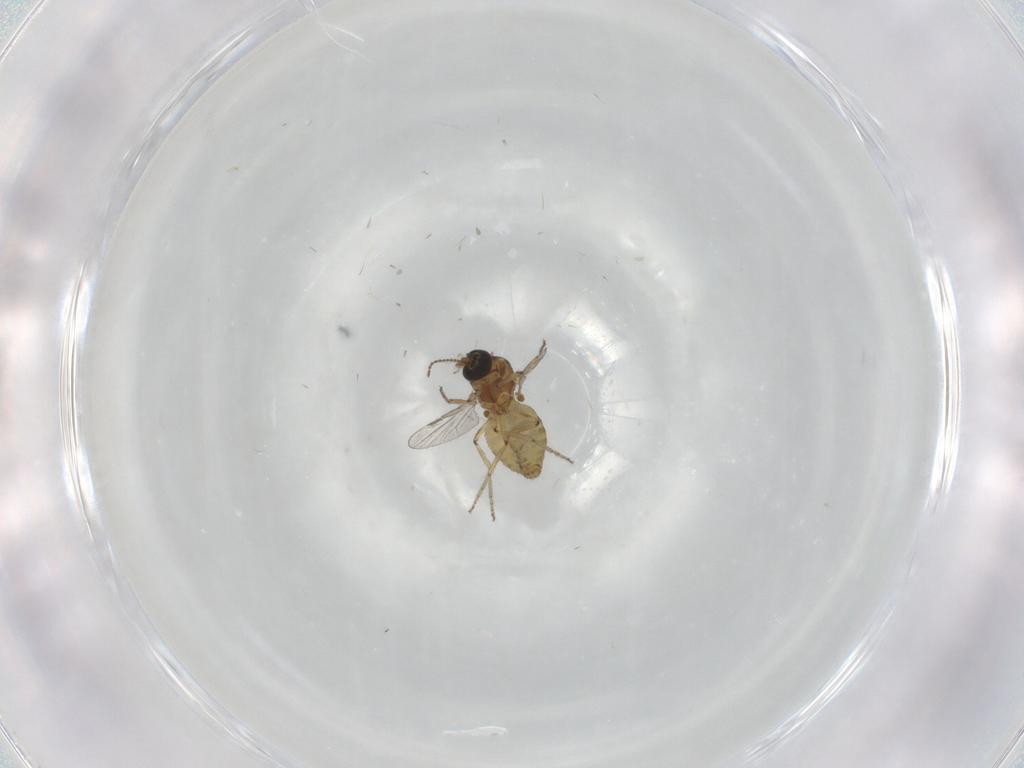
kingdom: Animalia
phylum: Arthropoda
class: Insecta
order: Diptera
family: Ceratopogonidae
